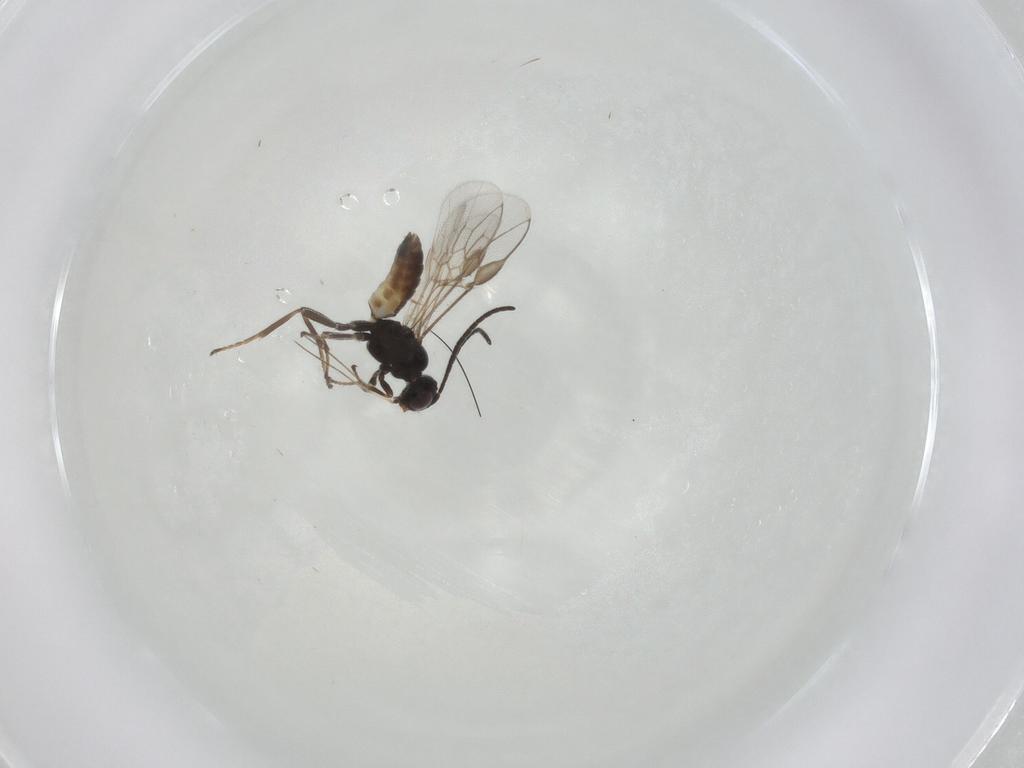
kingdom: Animalia
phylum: Arthropoda
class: Insecta
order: Hymenoptera
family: Braconidae
